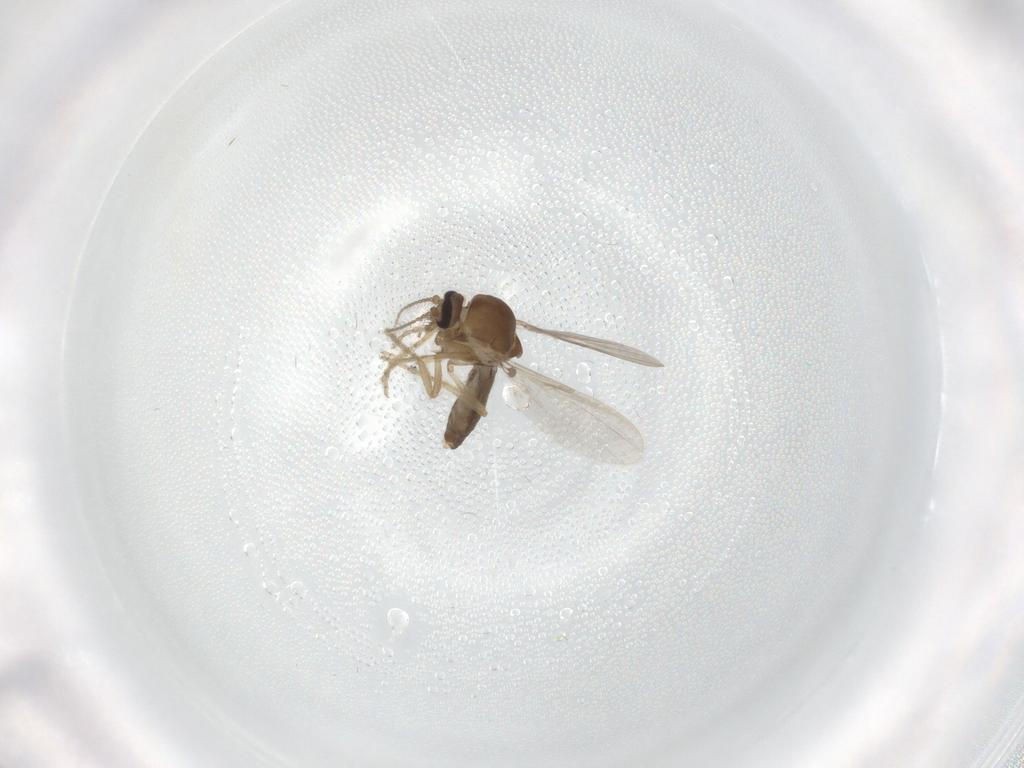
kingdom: Animalia
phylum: Arthropoda
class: Insecta
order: Diptera
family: Ceratopogonidae
